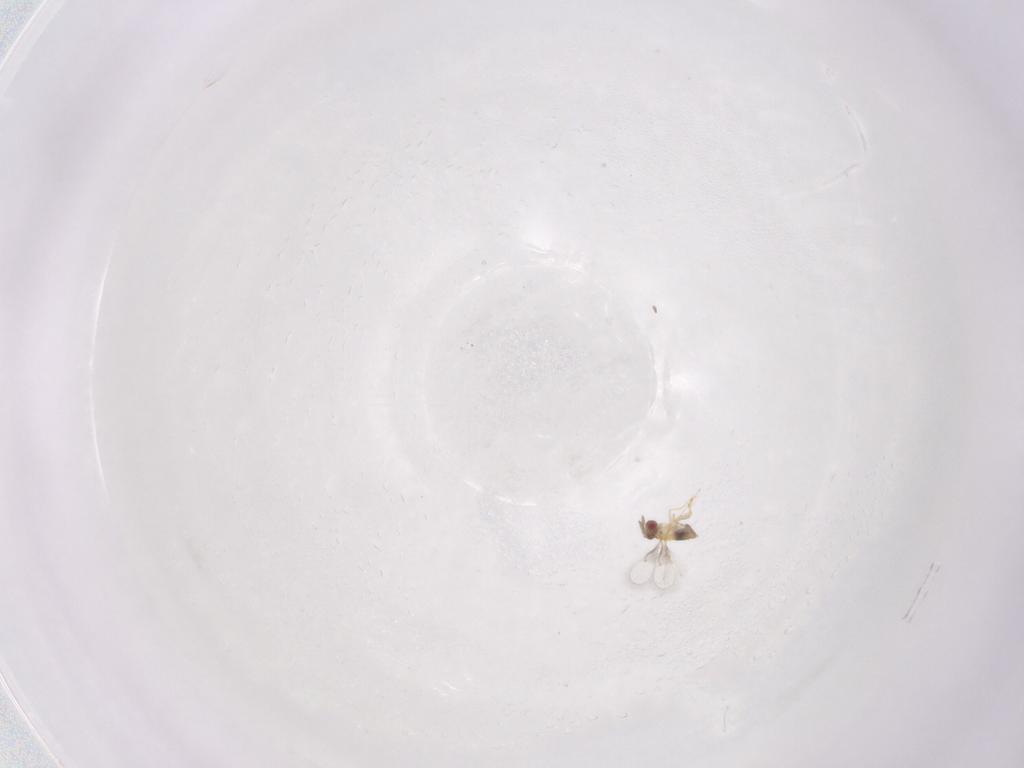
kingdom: Animalia
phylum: Arthropoda
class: Insecta
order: Hymenoptera
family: Trichogrammatidae
